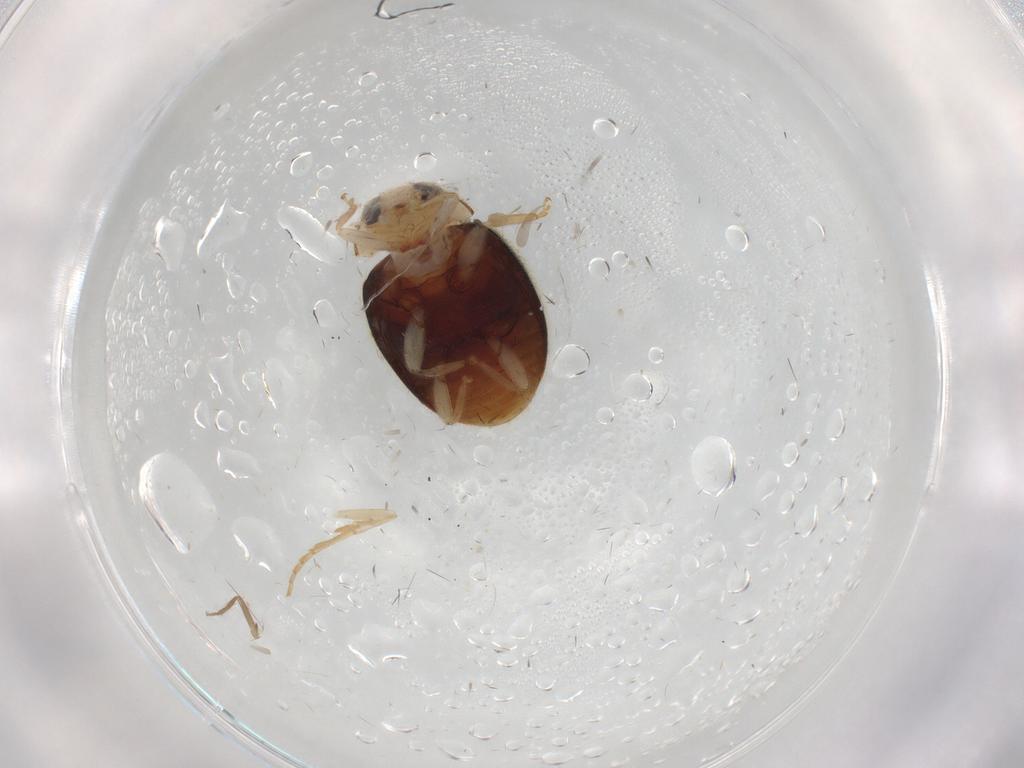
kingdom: Animalia
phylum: Arthropoda
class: Insecta
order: Coleoptera
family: Coccinellidae
